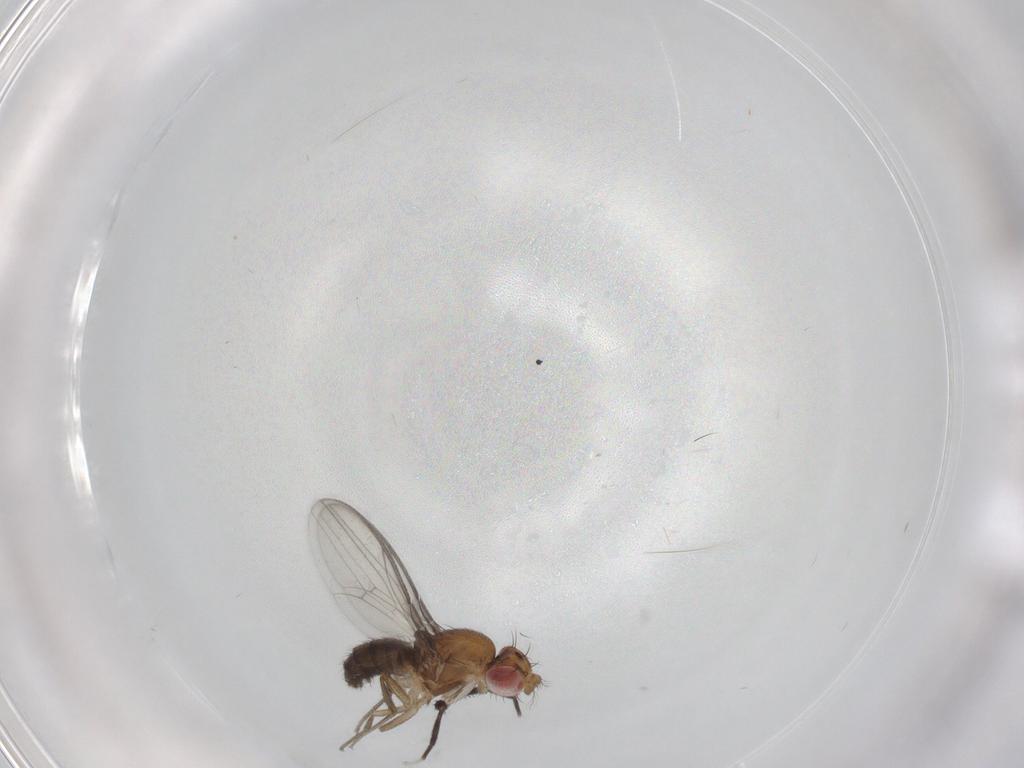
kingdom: Animalia
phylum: Arthropoda
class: Insecta
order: Diptera
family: Drosophilidae
